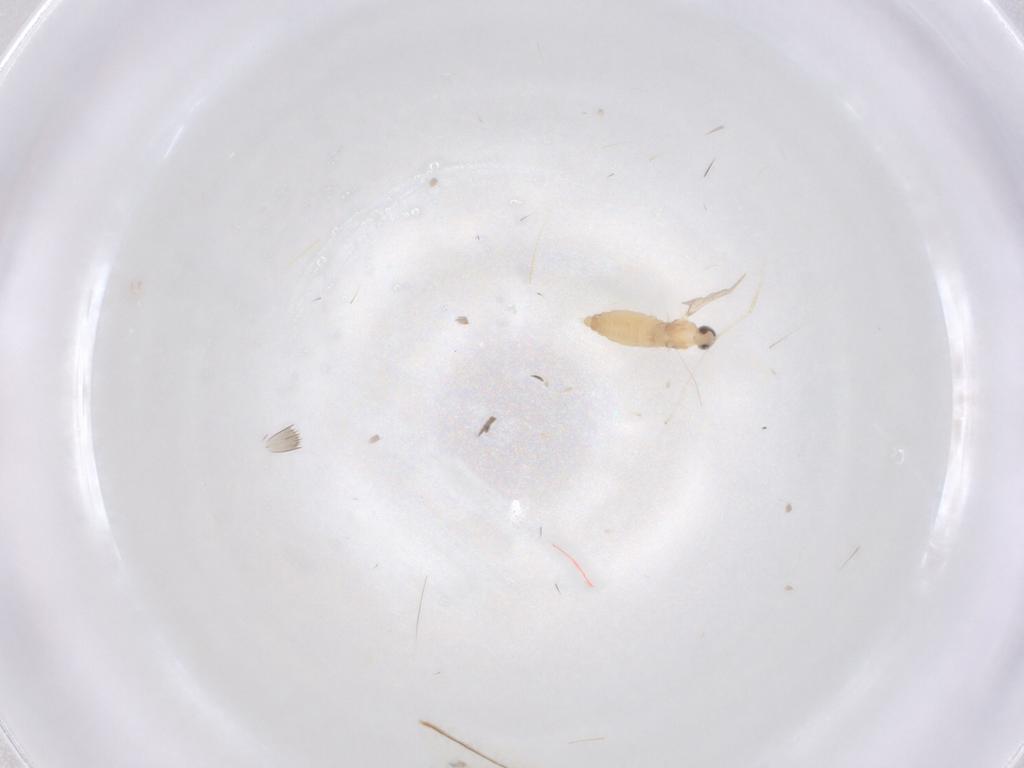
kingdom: Animalia
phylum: Arthropoda
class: Insecta
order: Diptera
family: Cecidomyiidae
